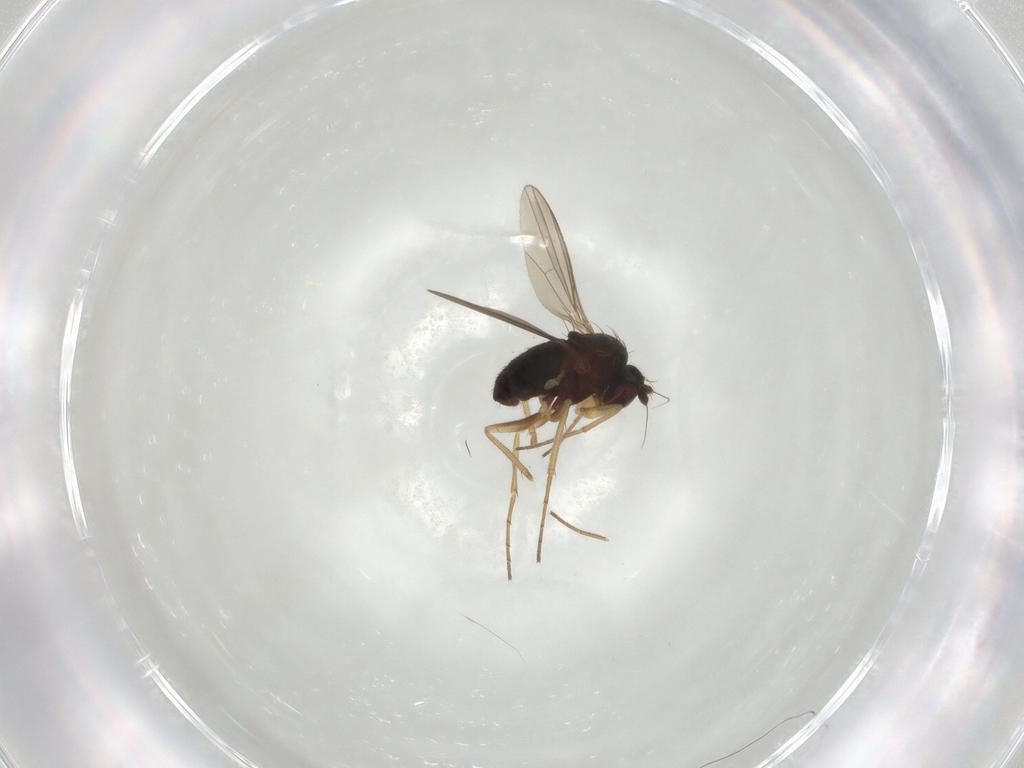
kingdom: Animalia
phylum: Arthropoda
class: Insecta
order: Diptera
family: Dolichopodidae
